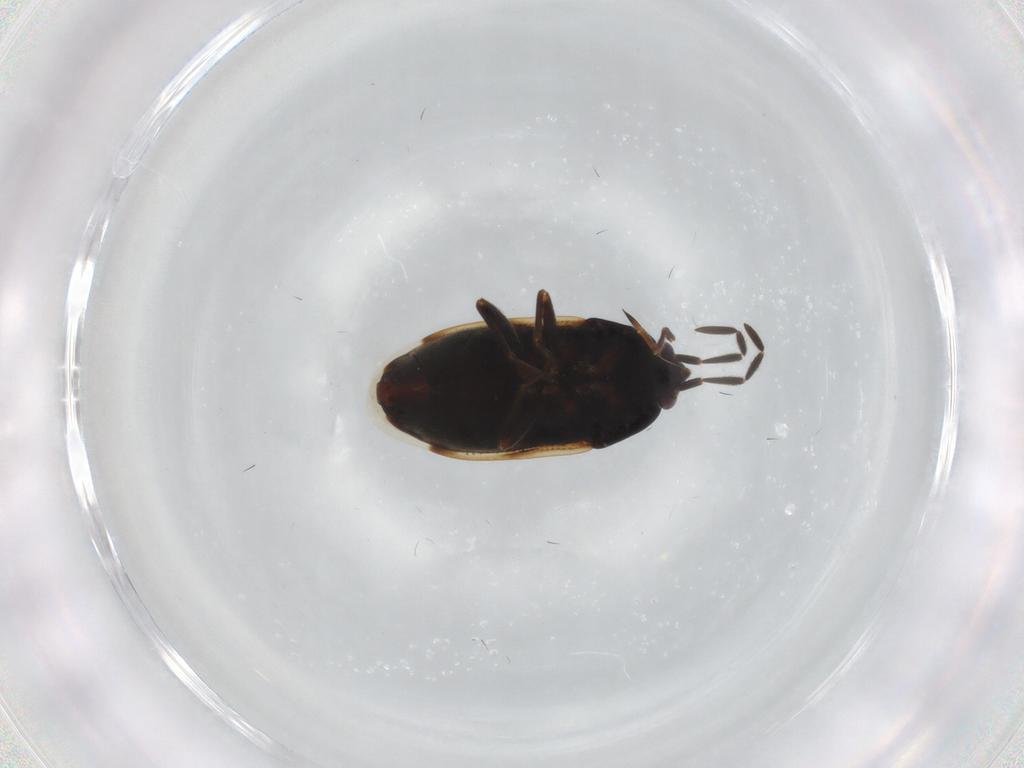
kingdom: Animalia
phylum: Arthropoda
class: Insecta
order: Hemiptera
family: Rhyparochromidae
